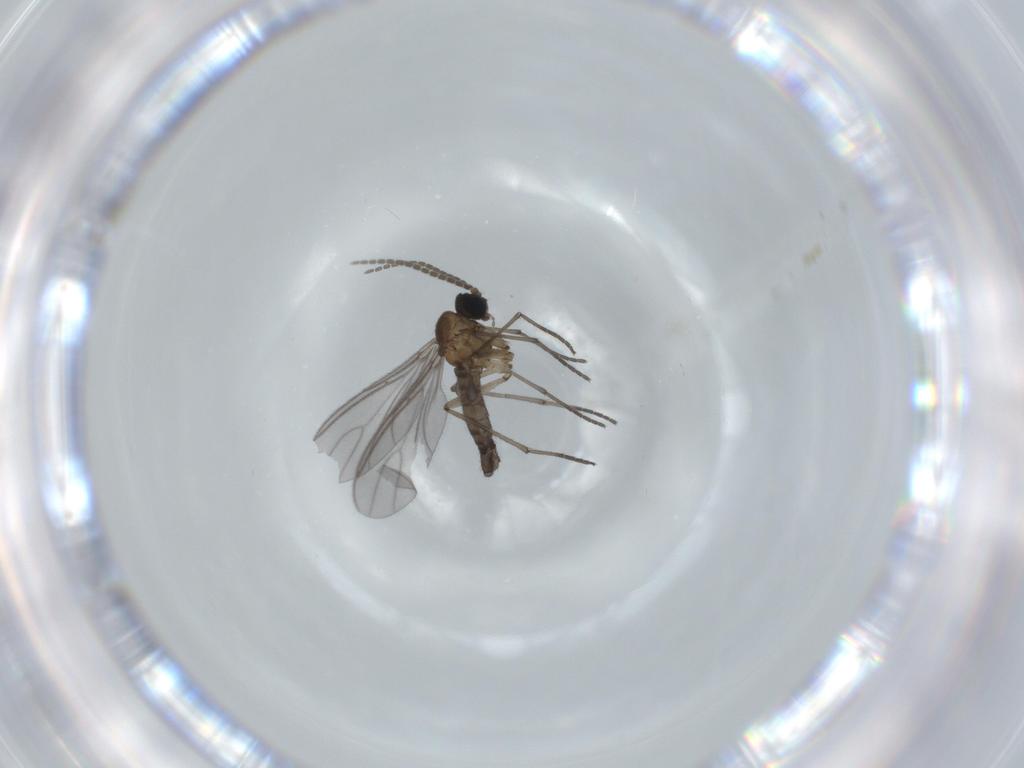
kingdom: Animalia
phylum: Arthropoda
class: Insecta
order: Diptera
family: Sciaridae
